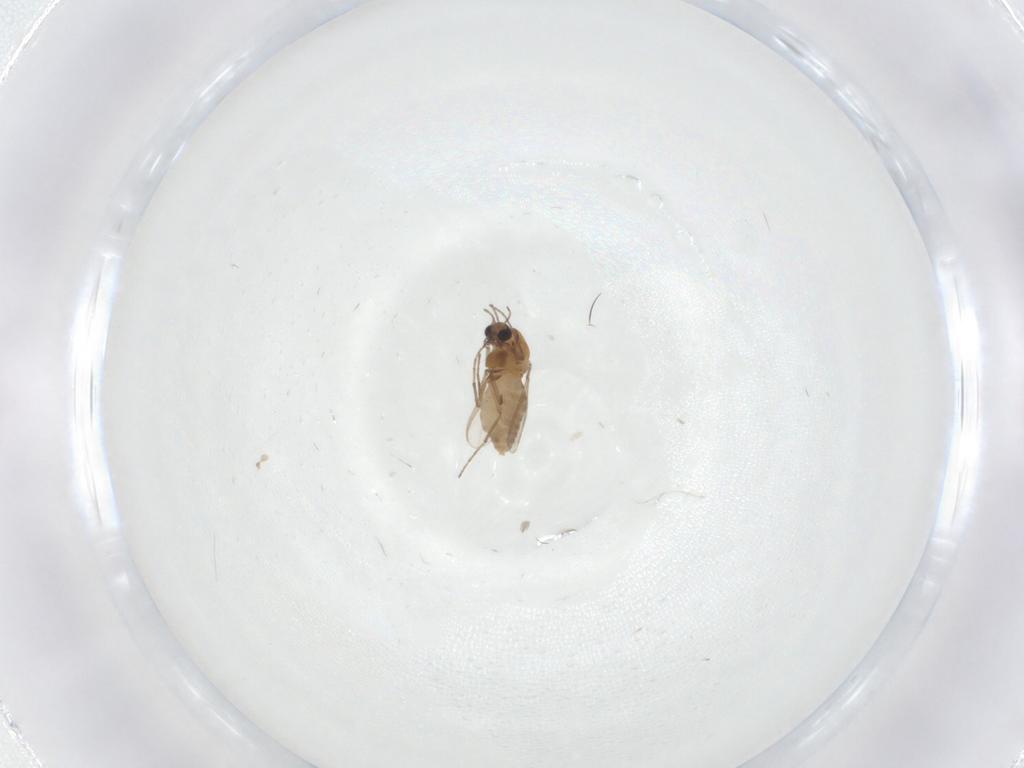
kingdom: Animalia
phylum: Arthropoda
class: Insecta
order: Diptera
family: Chironomidae
